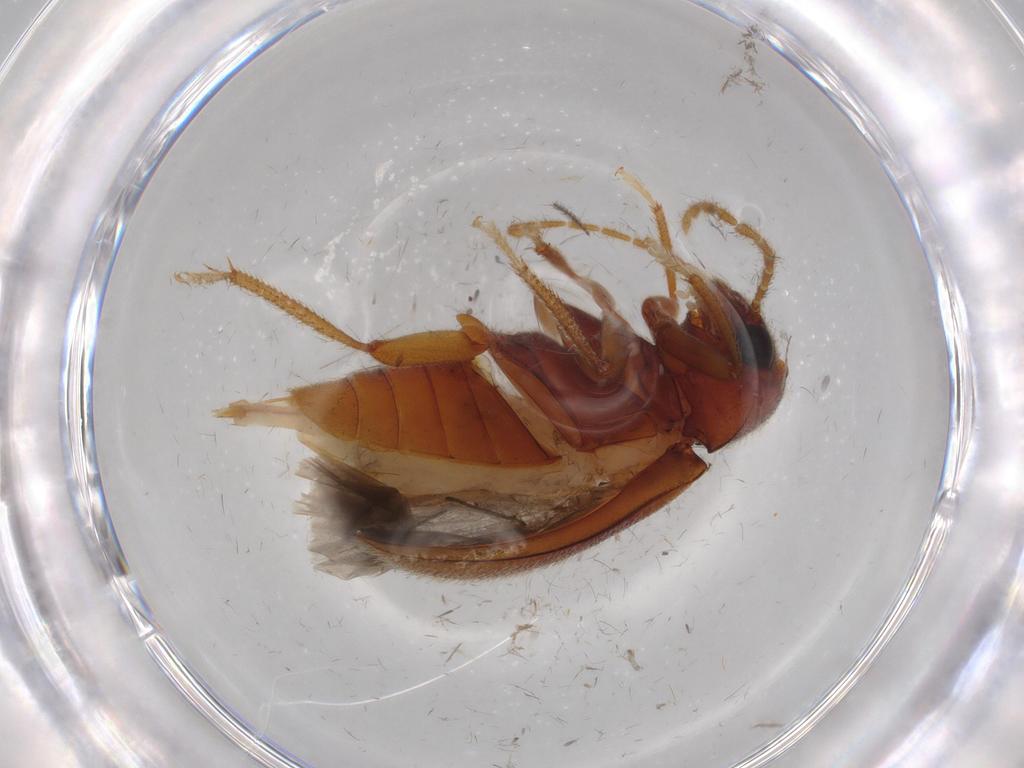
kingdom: Animalia
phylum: Arthropoda
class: Insecta
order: Coleoptera
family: Ptilodactylidae
